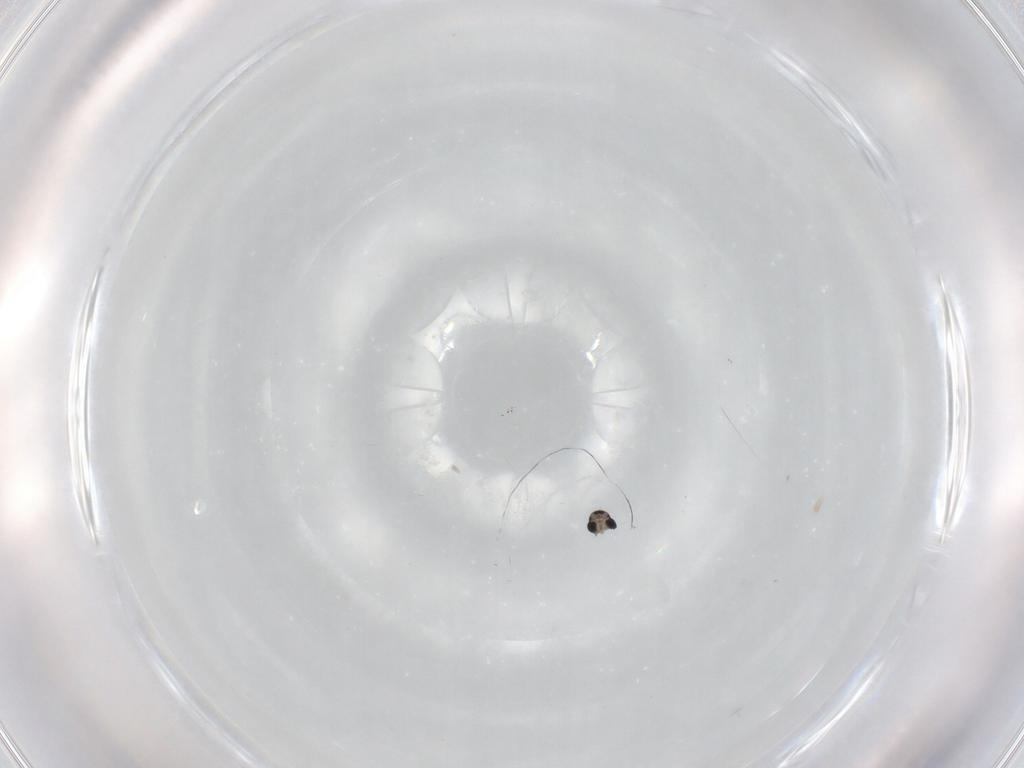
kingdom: Animalia
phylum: Arthropoda
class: Insecta
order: Diptera
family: Cecidomyiidae
